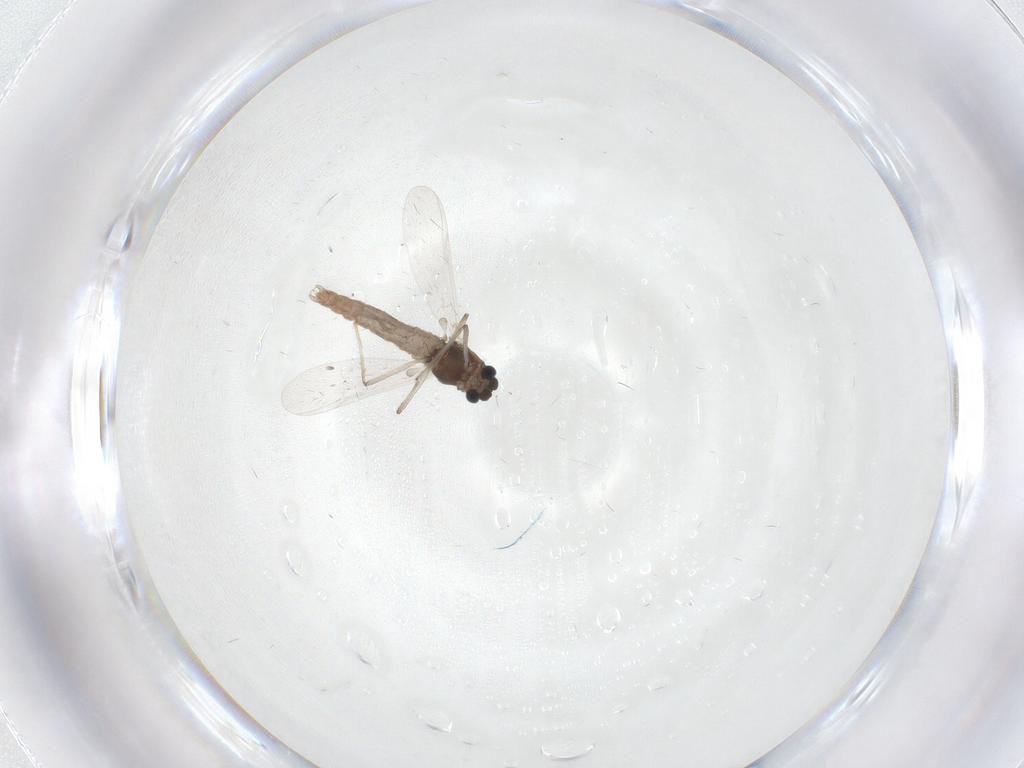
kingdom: Animalia
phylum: Arthropoda
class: Insecta
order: Diptera
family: Chironomidae
